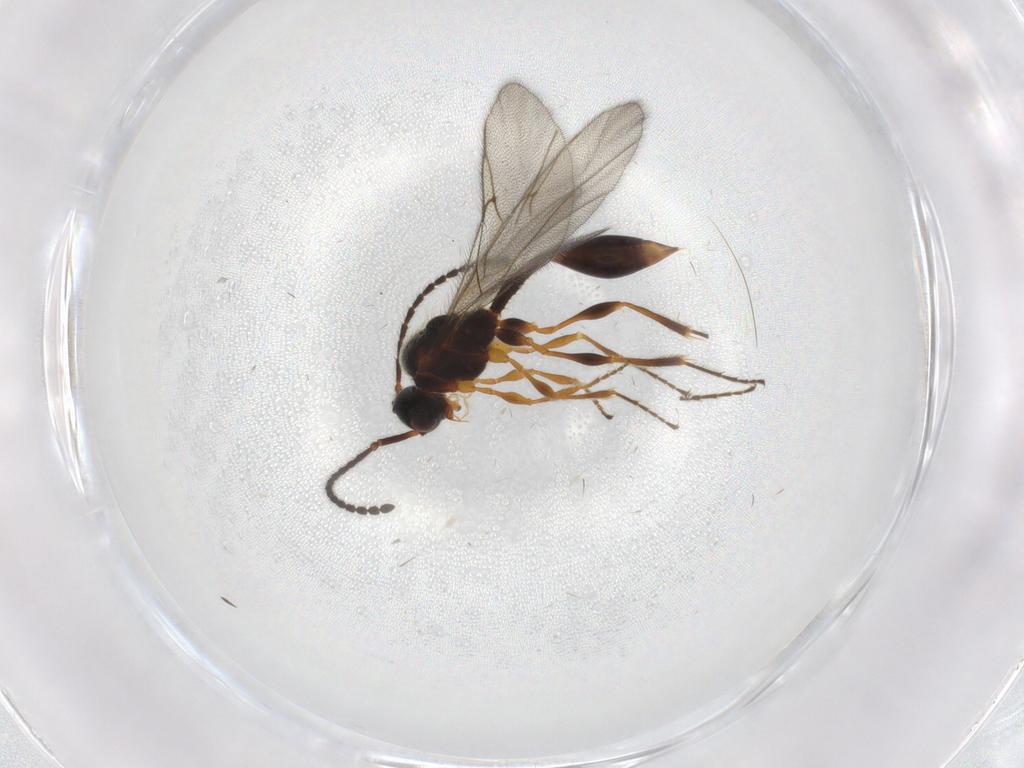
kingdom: Animalia
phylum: Arthropoda
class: Insecta
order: Hymenoptera
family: Diapriidae
